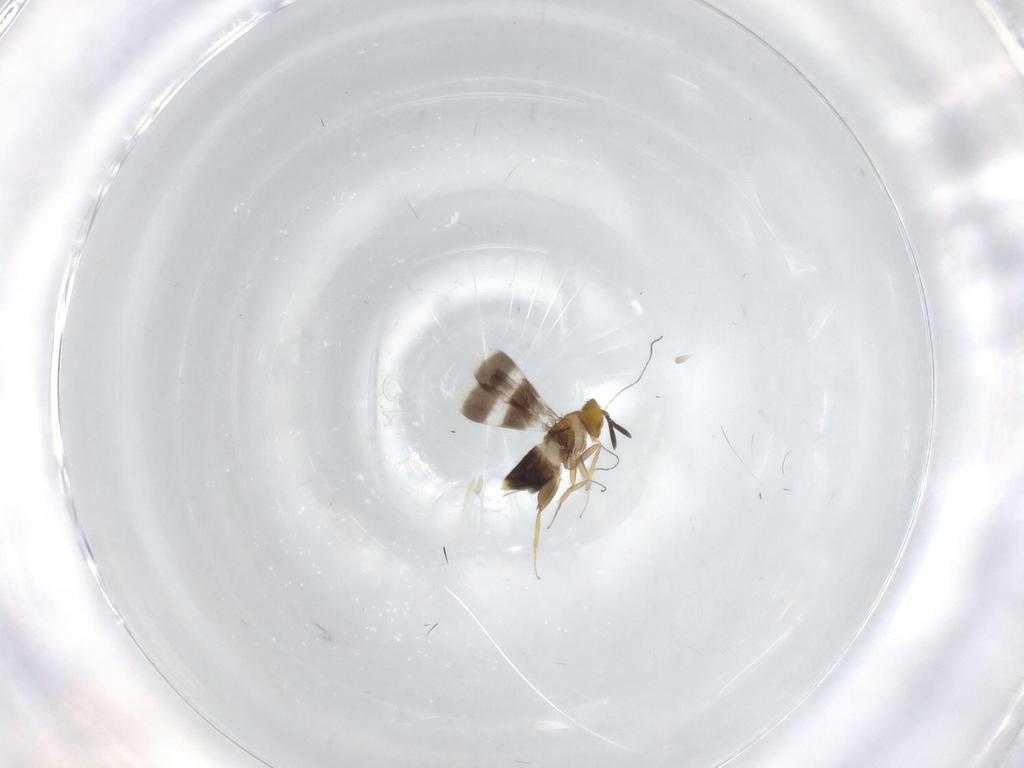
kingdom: Animalia
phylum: Arthropoda
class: Insecta
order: Hymenoptera
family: Aphelinidae
